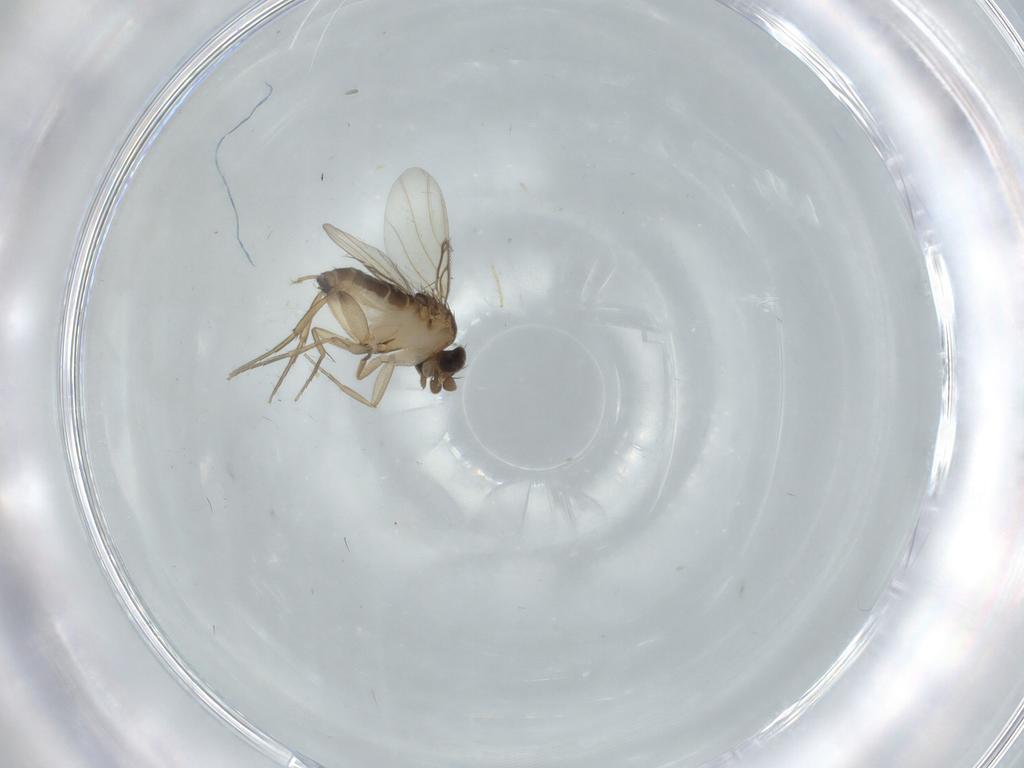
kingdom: Animalia
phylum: Arthropoda
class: Insecta
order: Diptera
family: Phoridae
